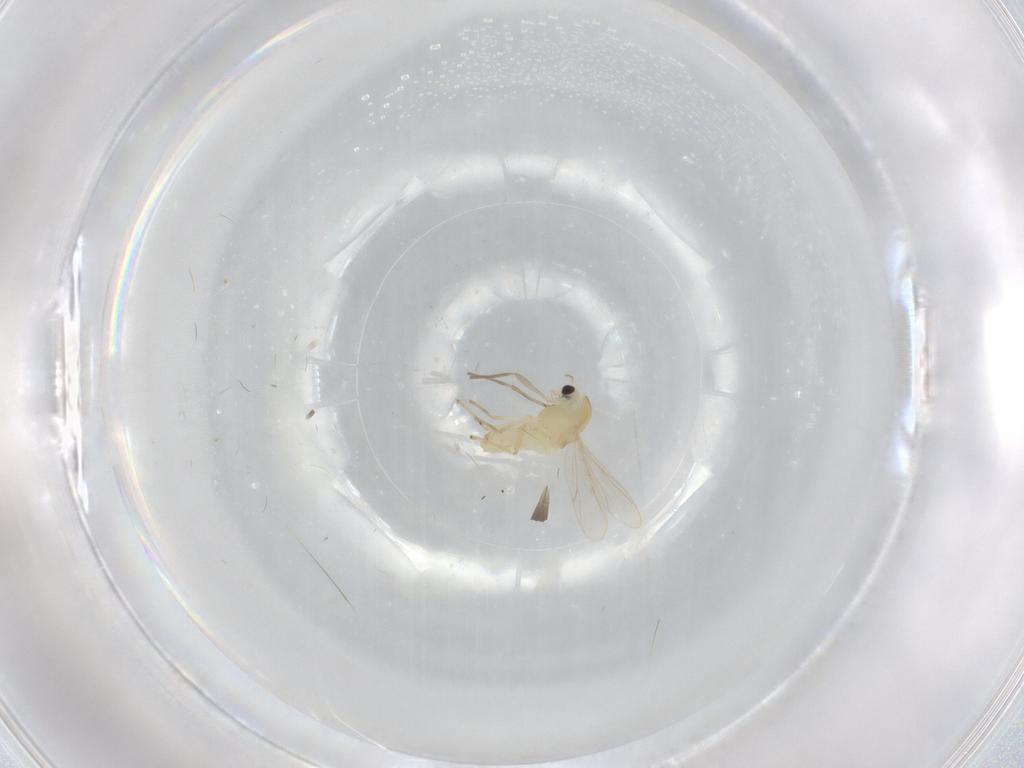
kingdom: Animalia
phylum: Arthropoda
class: Insecta
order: Diptera
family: Chironomidae
